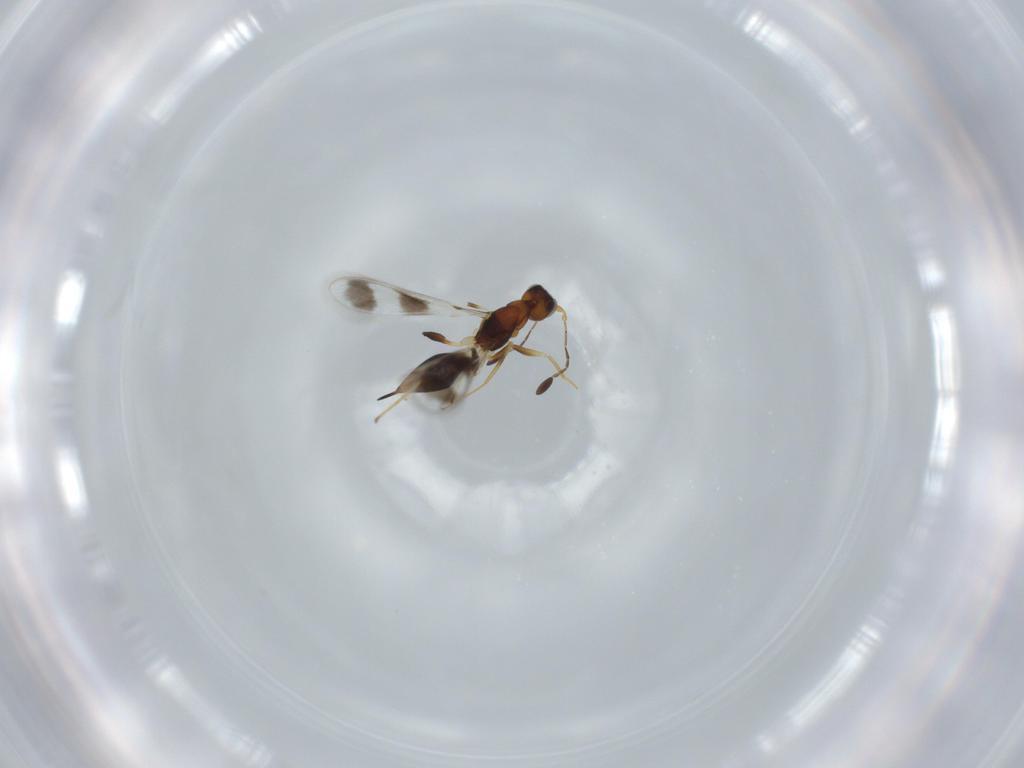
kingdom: Animalia
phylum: Arthropoda
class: Insecta
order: Hymenoptera
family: Mymaridae
